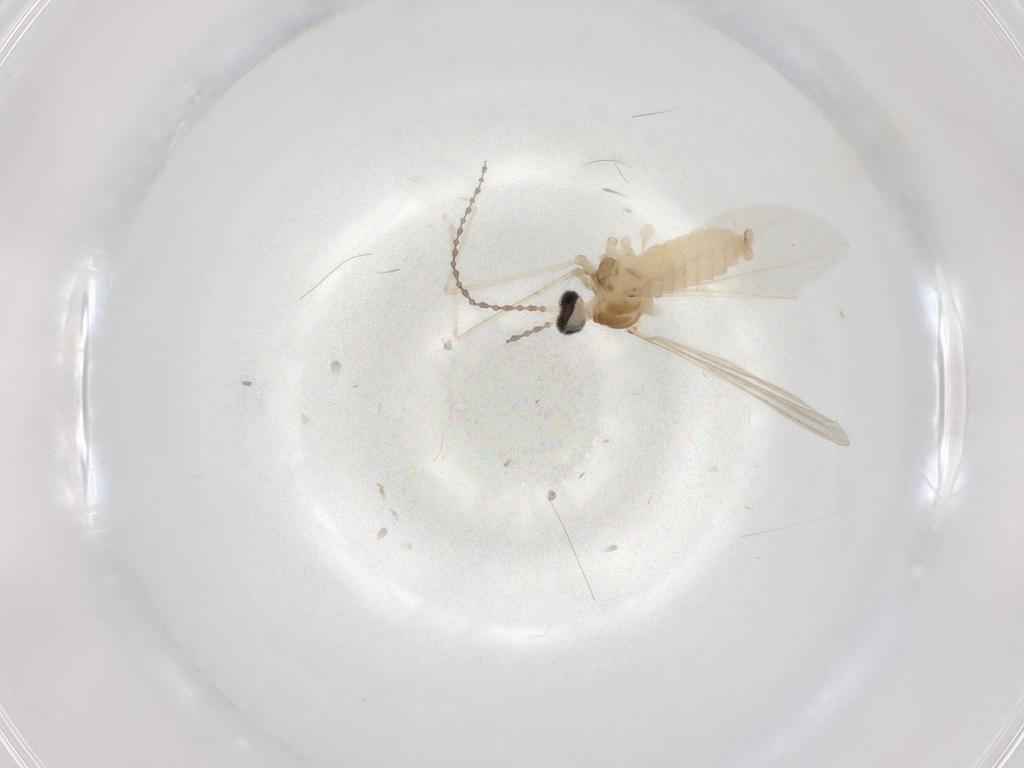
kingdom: Animalia
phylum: Arthropoda
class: Insecta
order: Diptera
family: Cecidomyiidae
